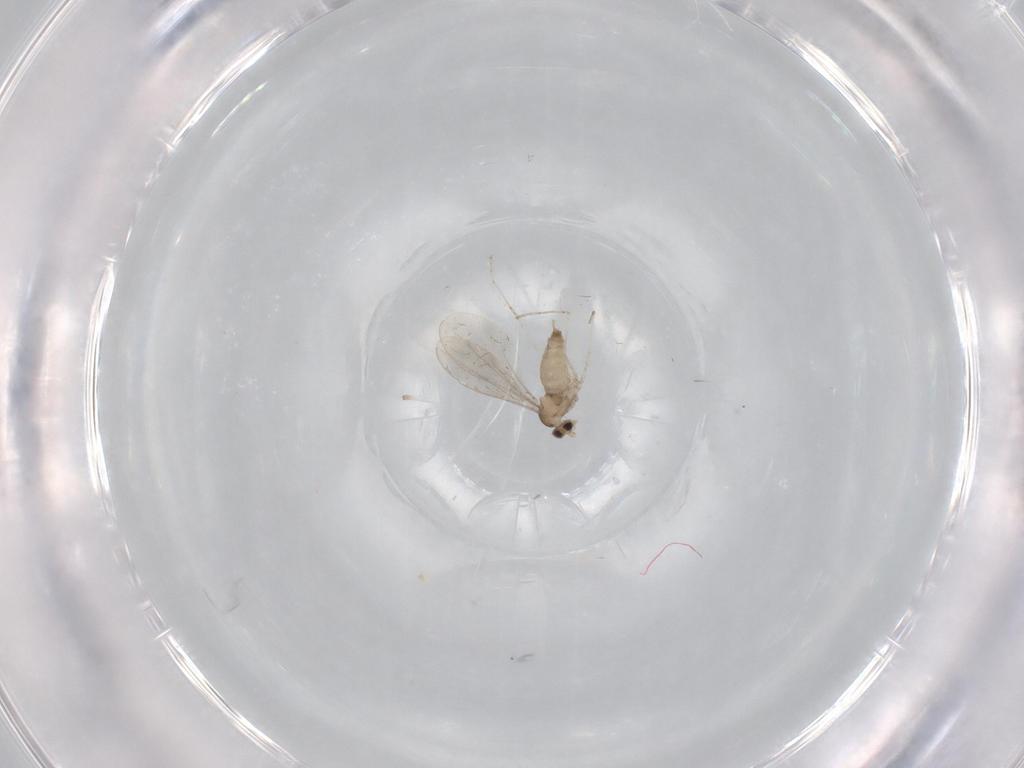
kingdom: Animalia
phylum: Arthropoda
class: Insecta
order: Diptera
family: Cecidomyiidae
